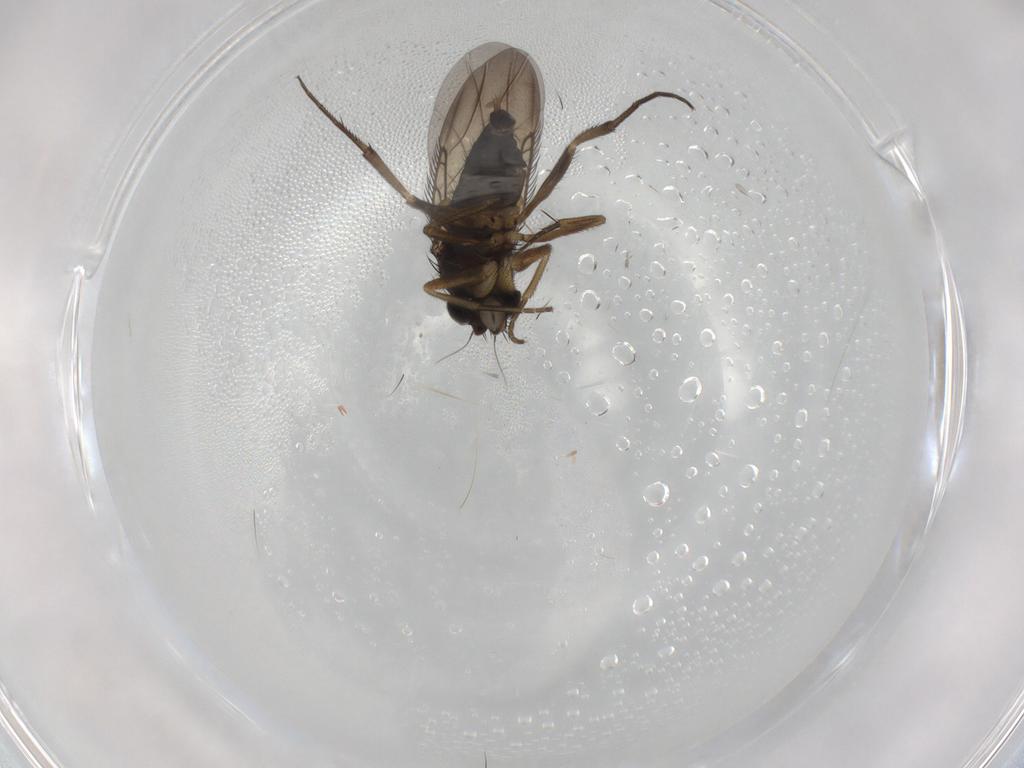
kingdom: Animalia
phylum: Arthropoda
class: Insecta
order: Diptera
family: Phoridae
